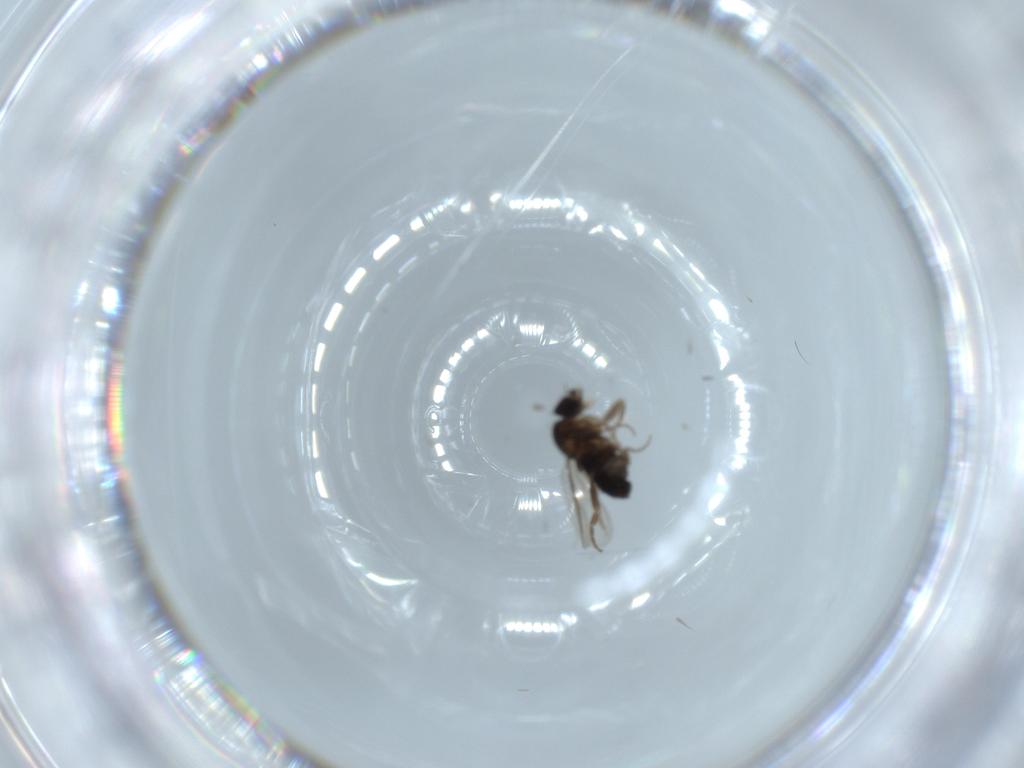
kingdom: Animalia
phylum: Arthropoda
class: Insecta
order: Diptera
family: Phoridae
